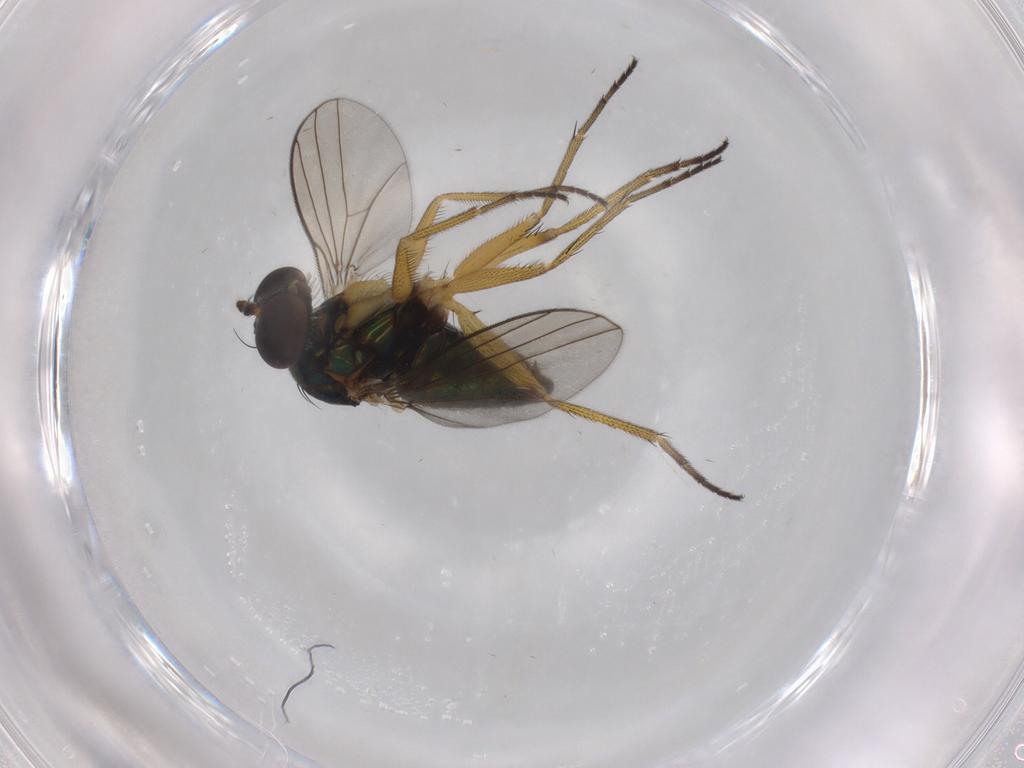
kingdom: Animalia
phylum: Arthropoda
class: Insecta
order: Diptera
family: Dolichopodidae
